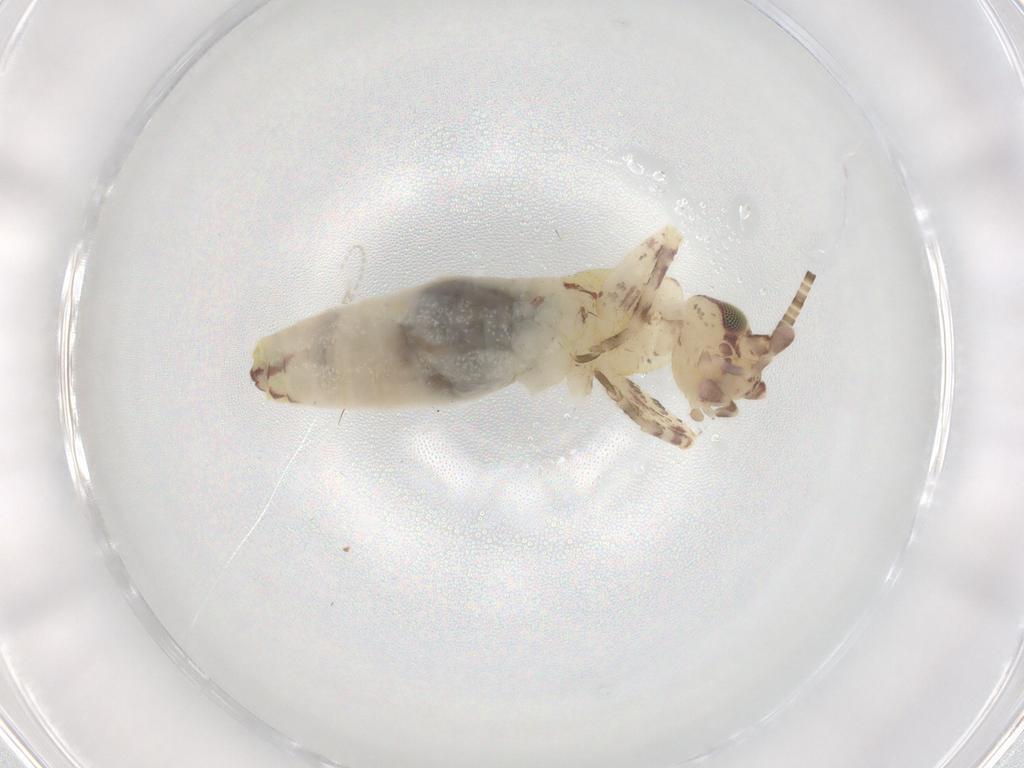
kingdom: Animalia
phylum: Arthropoda
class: Insecta
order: Orthoptera
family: Mogoplistidae
